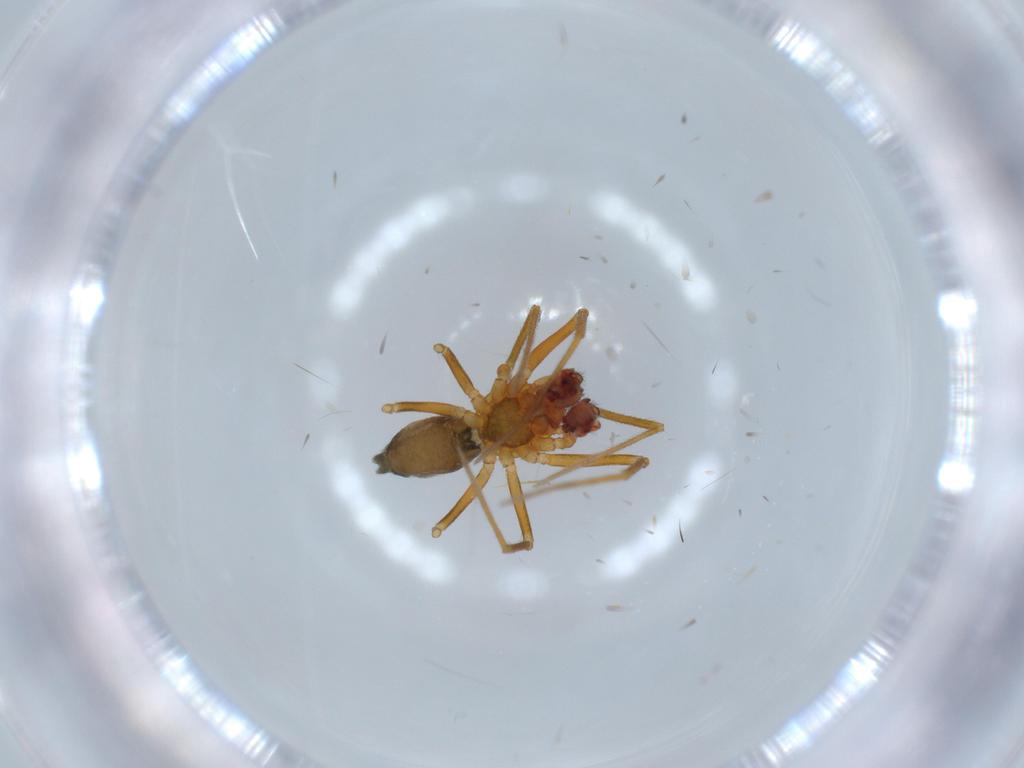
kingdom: Animalia
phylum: Arthropoda
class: Arachnida
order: Araneae
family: Linyphiidae
